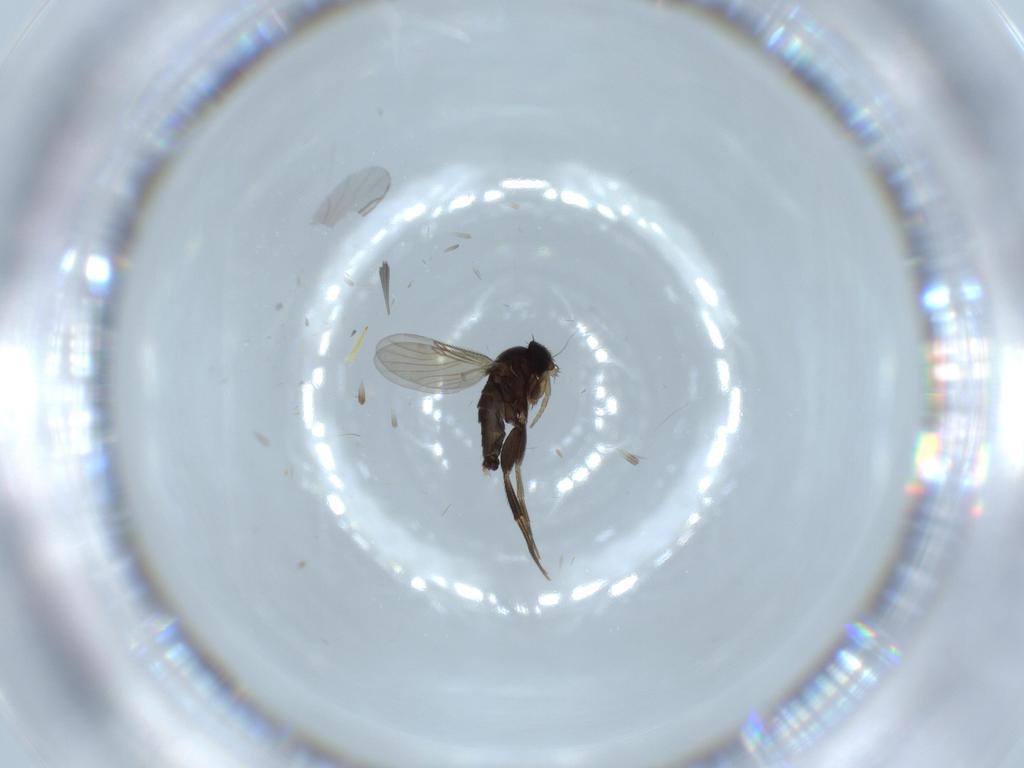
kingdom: Animalia
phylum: Arthropoda
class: Insecta
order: Diptera
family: Phoridae
